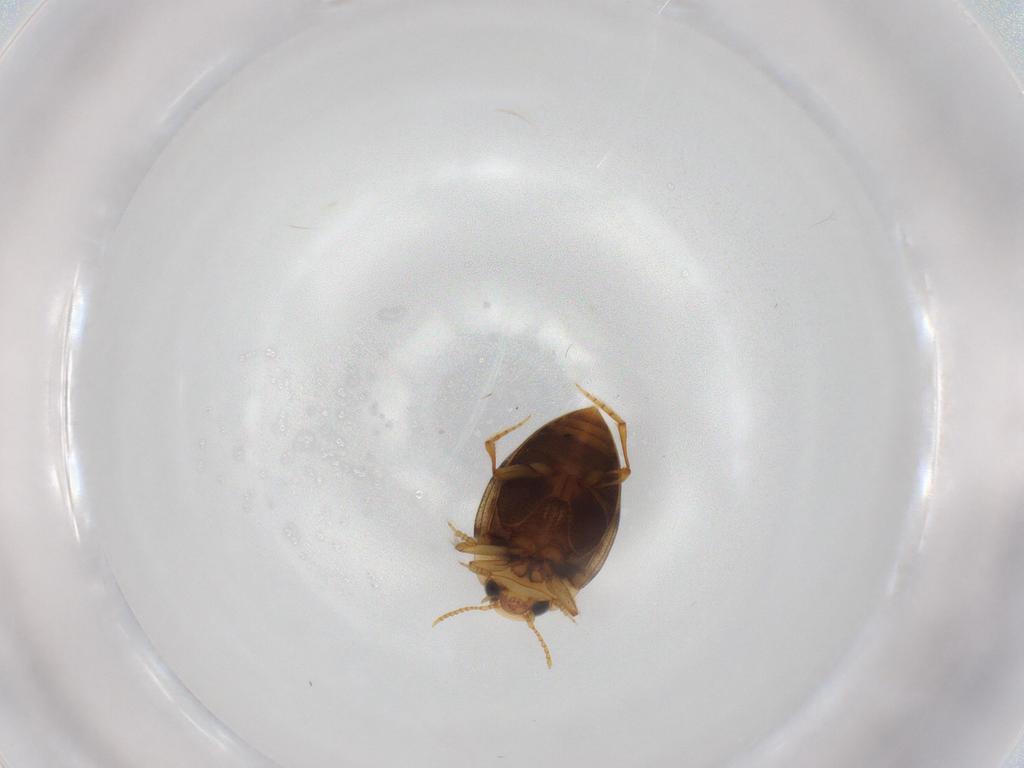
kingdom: Animalia
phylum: Arthropoda
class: Insecta
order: Coleoptera
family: Dytiscidae
